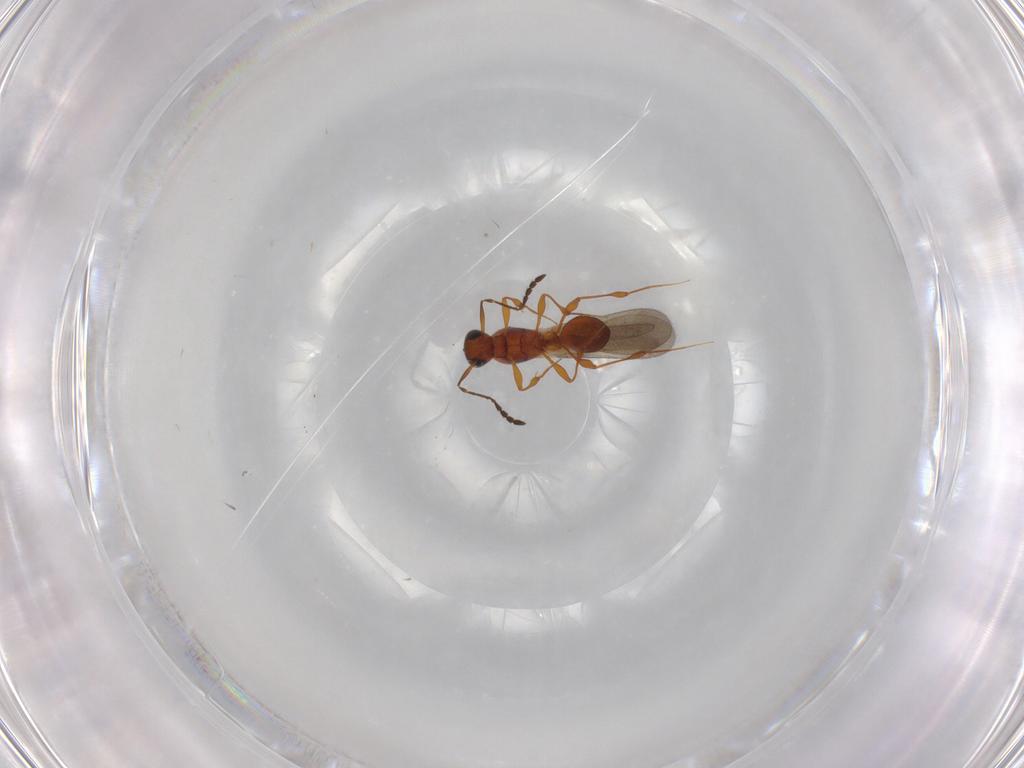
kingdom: Animalia
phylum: Arthropoda
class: Insecta
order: Hymenoptera
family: Platygastridae
